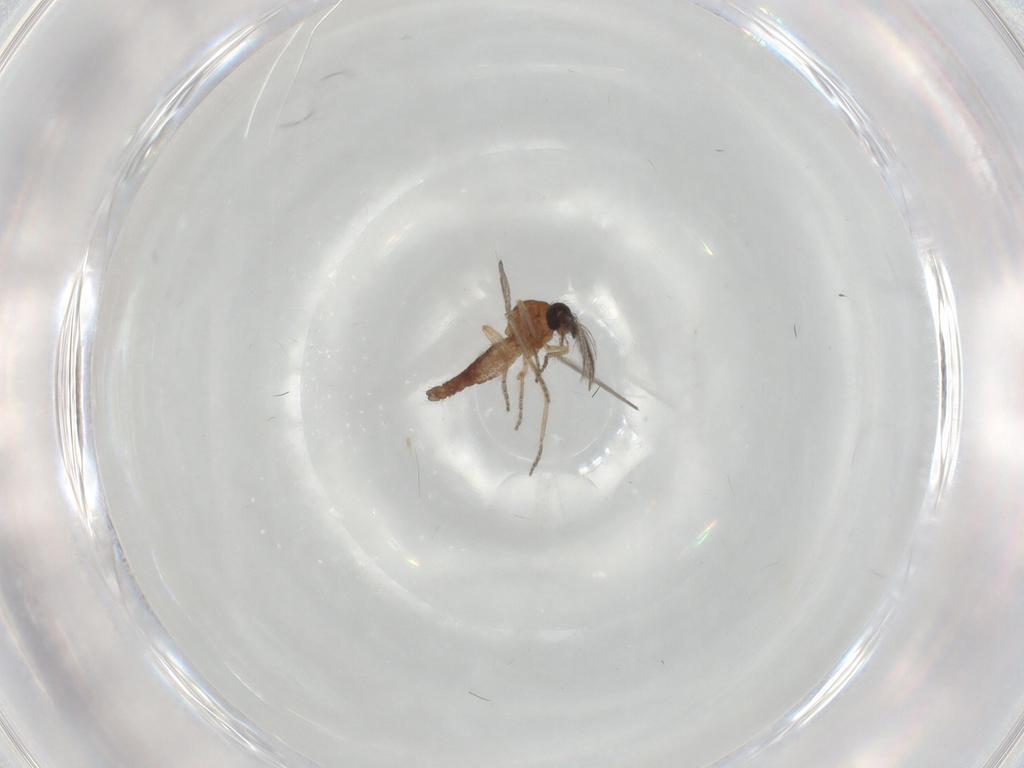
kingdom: Animalia
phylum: Arthropoda
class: Insecta
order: Diptera
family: Ceratopogonidae
